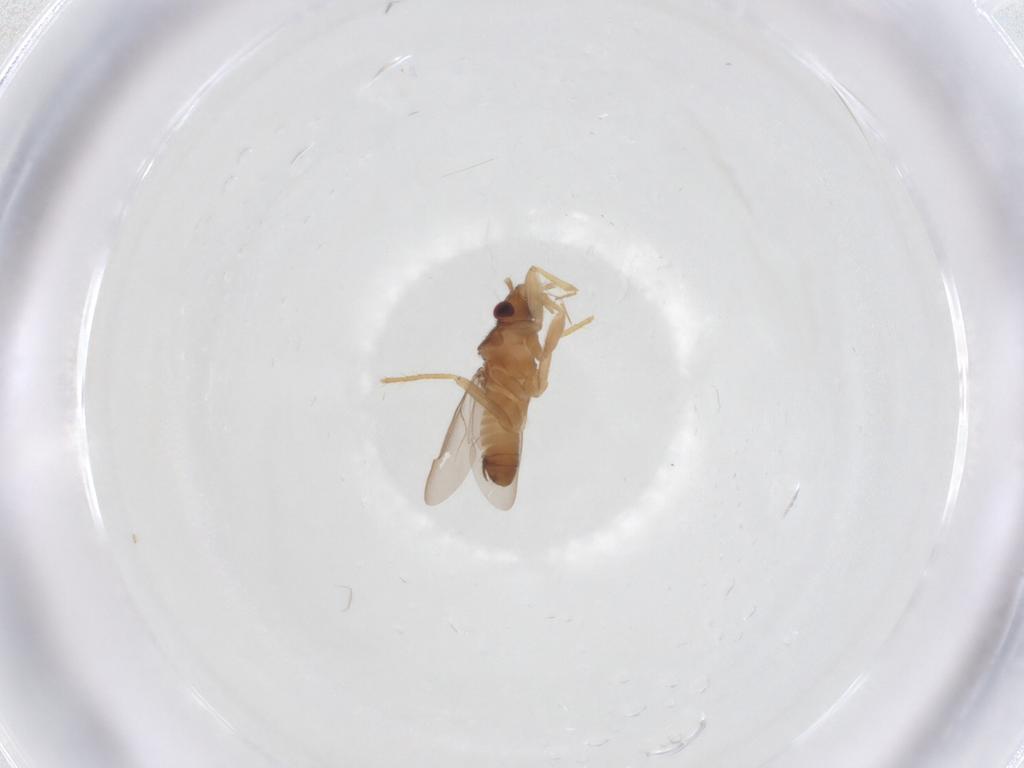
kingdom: Animalia
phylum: Arthropoda
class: Insecta
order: Hemiptera
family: Ceratocombidae
